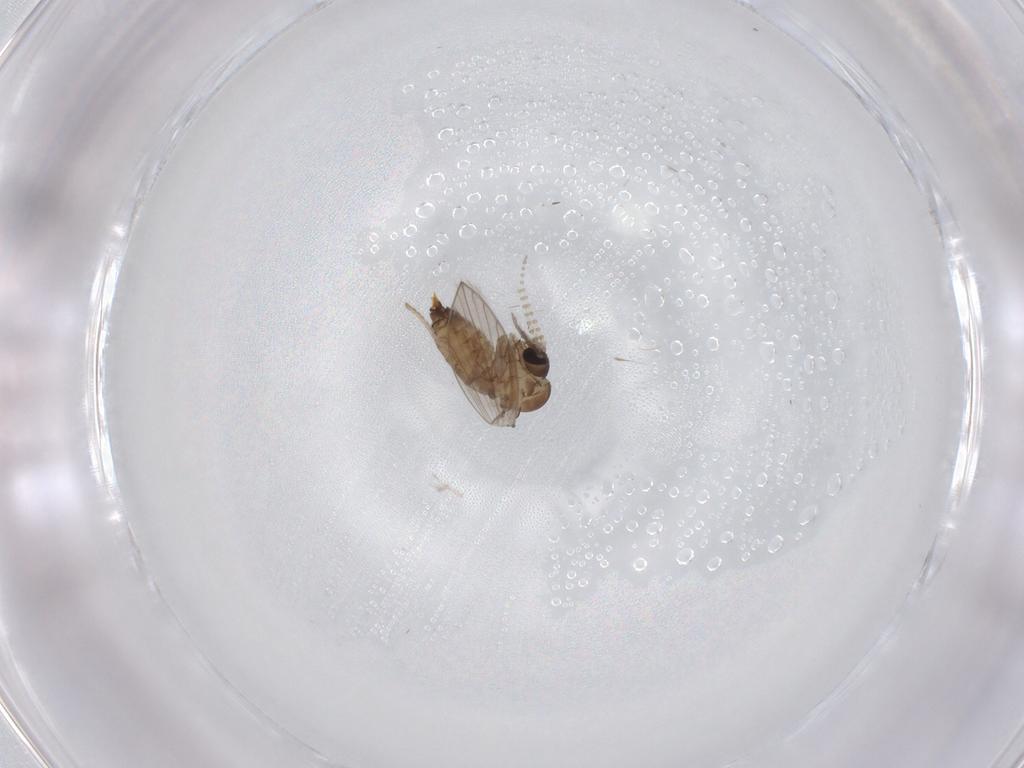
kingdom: Animalia
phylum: Arthropoda
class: Insecta
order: Diptera
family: Psychodidae
